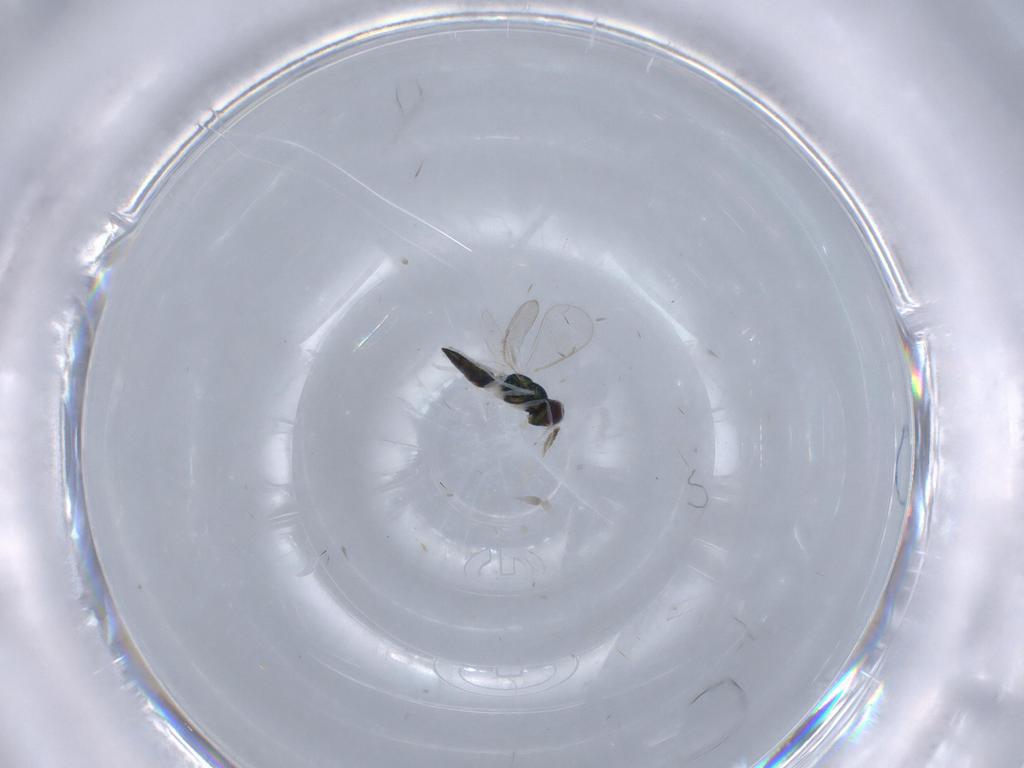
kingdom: Animalia
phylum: Arthropoda
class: Insecta
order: Hymenoptera
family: Eulophidae
